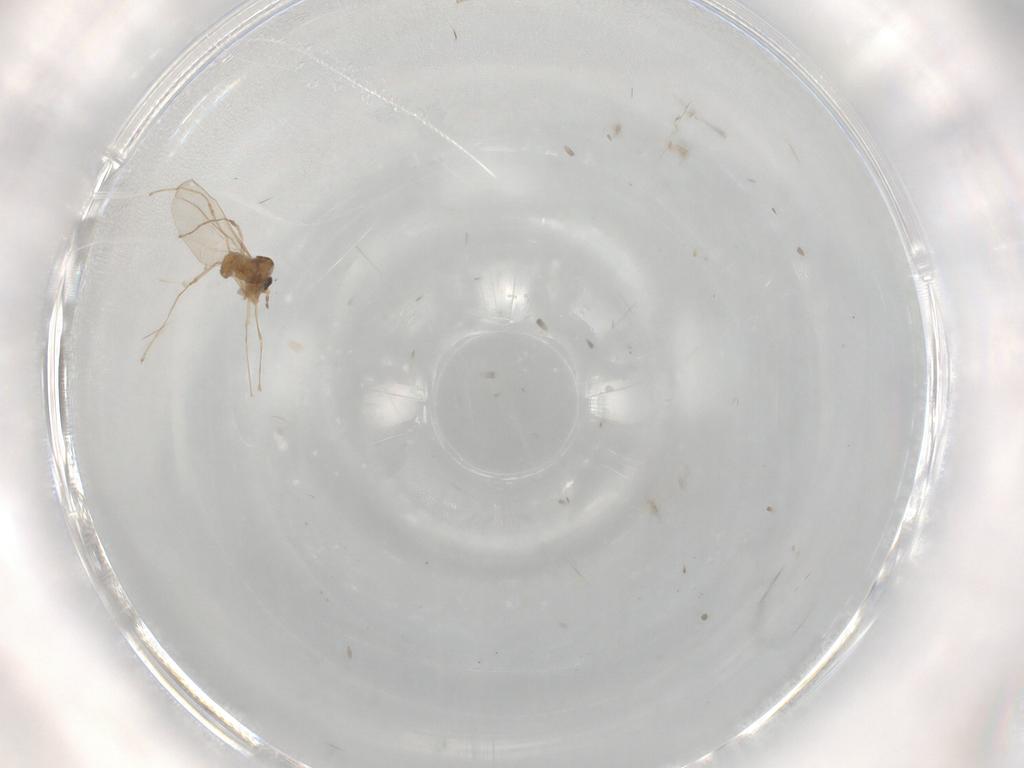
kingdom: Animalia
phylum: Arthropoda
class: Insecta
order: Diptera
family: Cecidomyiidae
